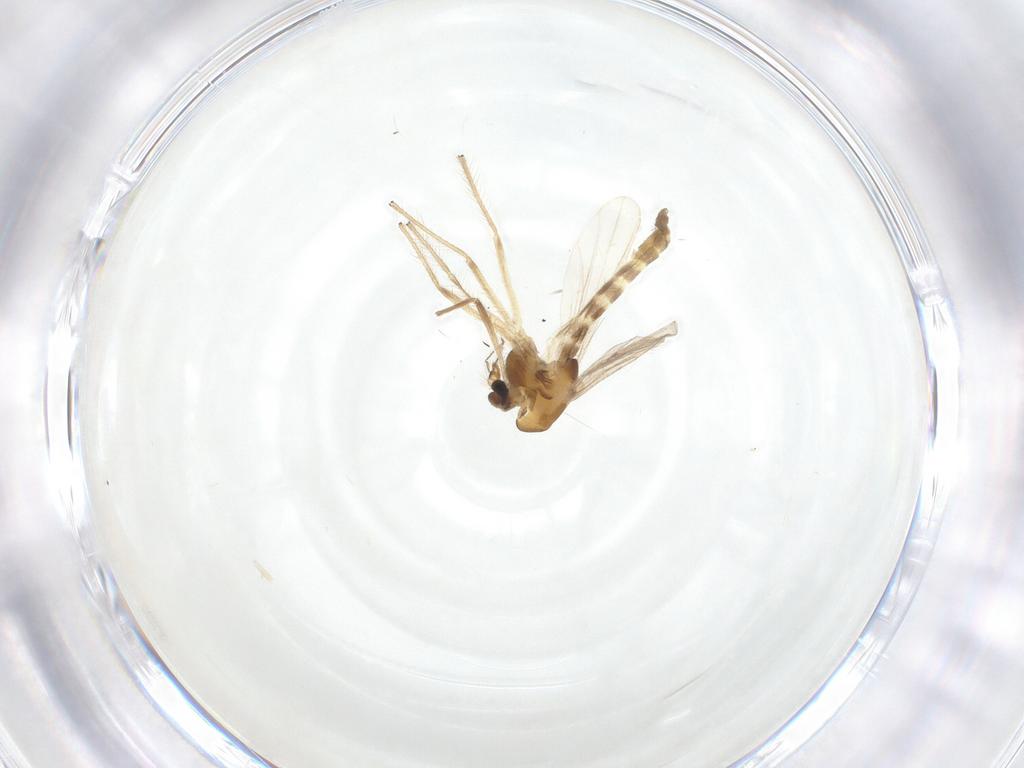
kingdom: Animalia
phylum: Arthropoda
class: Insecta
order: Diptera
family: Chironomidae
